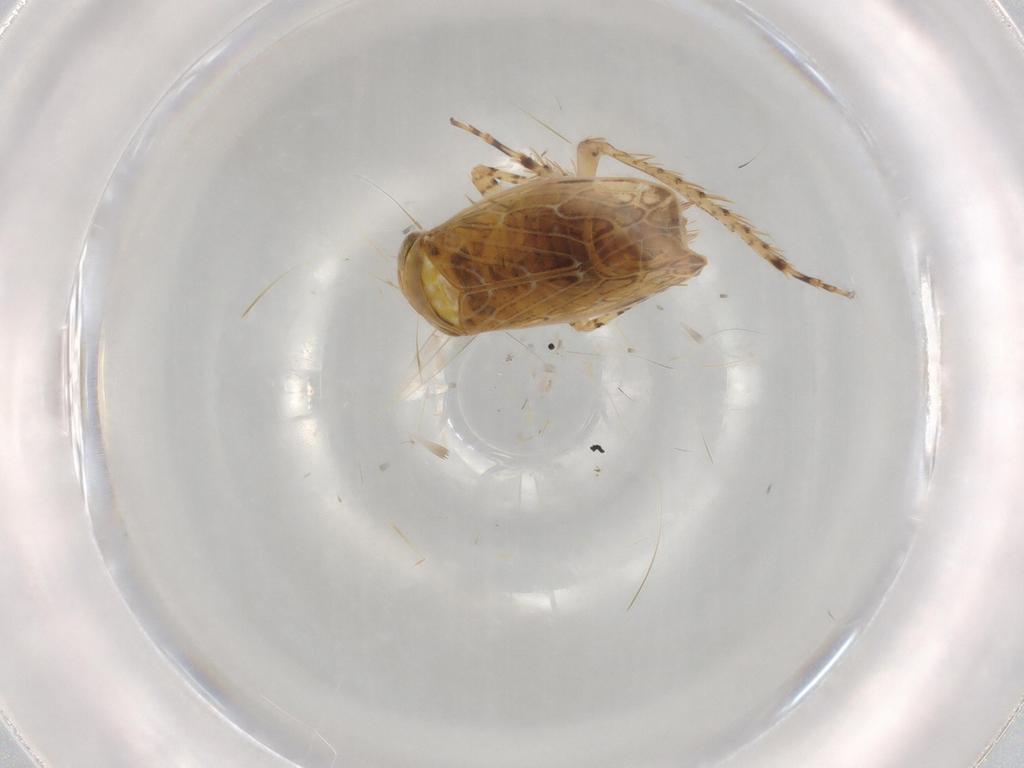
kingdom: Animalia
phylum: Arthropoda
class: Insecta
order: Hemiptera
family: Cicadellidae
